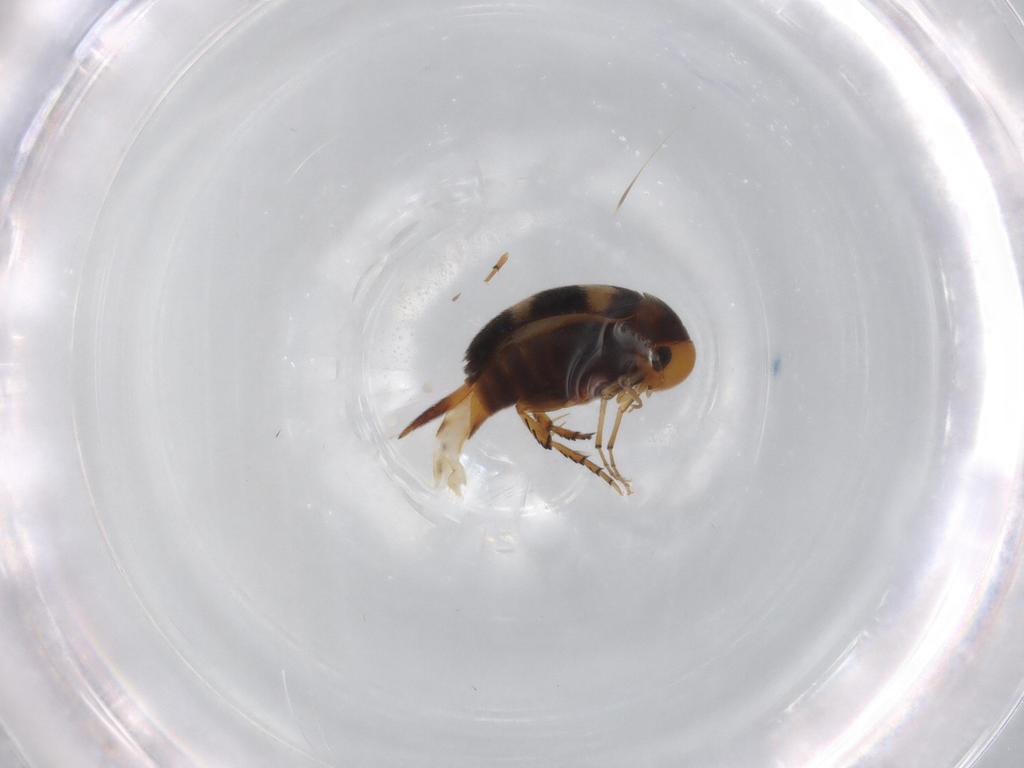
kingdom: Animalia
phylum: Arthropoda
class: Insecta
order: Coleoptera
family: Mordellidae
